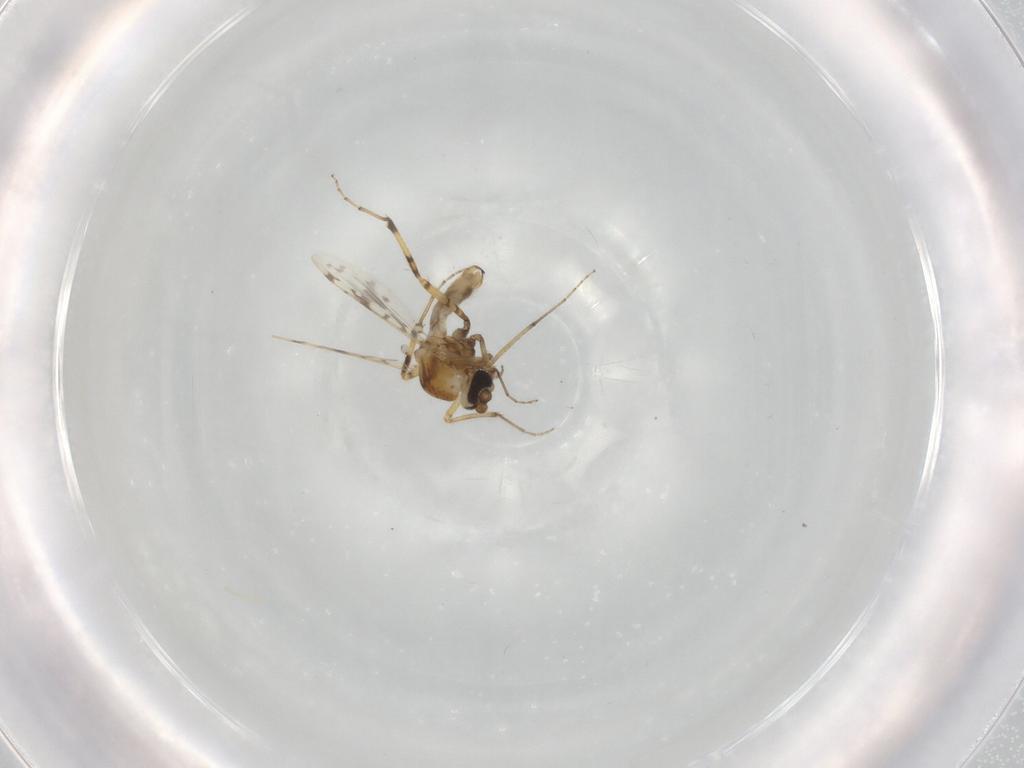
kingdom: Animalia
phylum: Arthropoda
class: Insecta
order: Diptera
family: Ceratopogonidae
